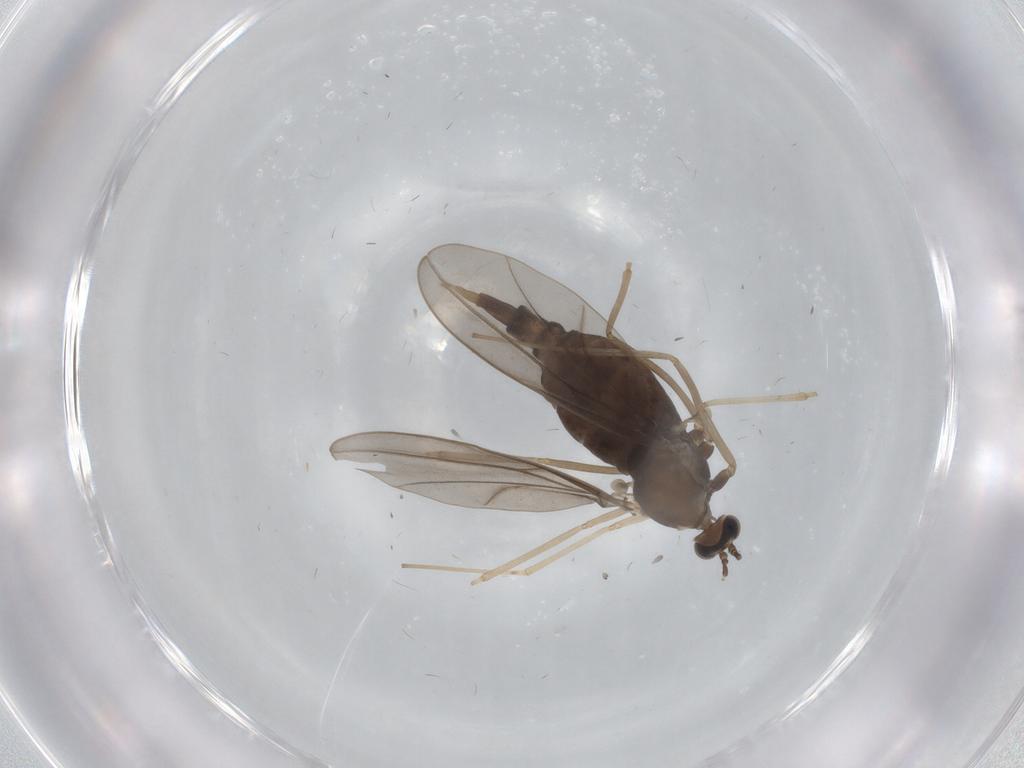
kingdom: Animalia
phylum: Arthropoda
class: Insecta
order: Diptera
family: Cecidomyiidae
